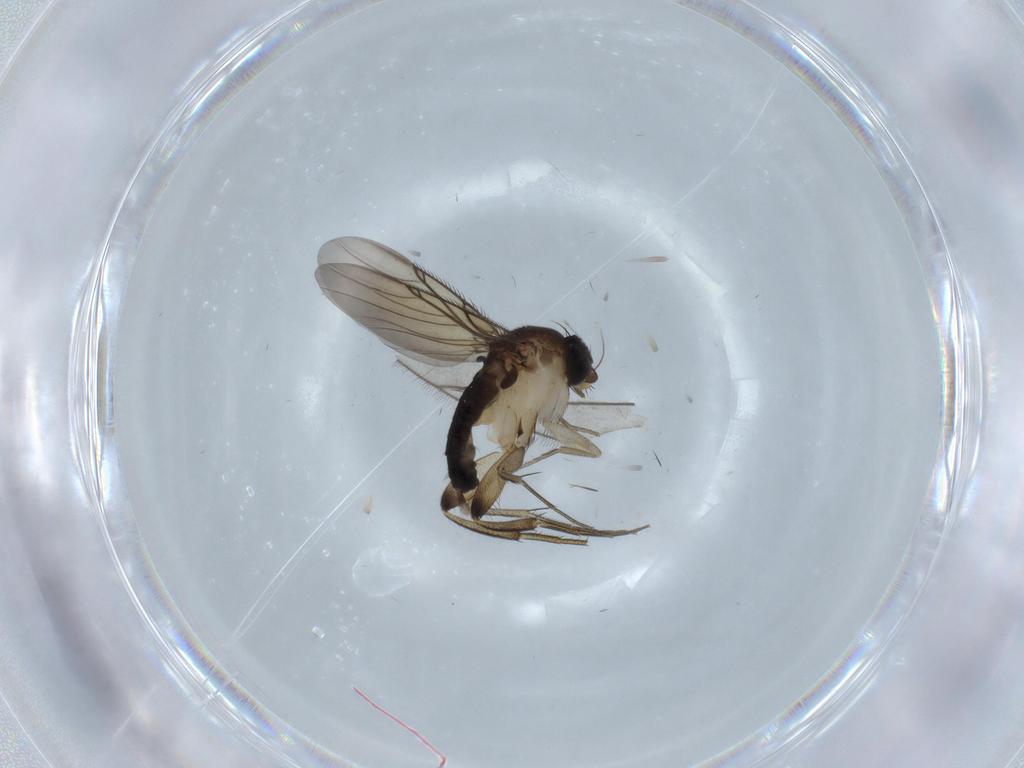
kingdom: Animalia
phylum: Arthropoda
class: Insecta
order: Diptera
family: Limoniidae
